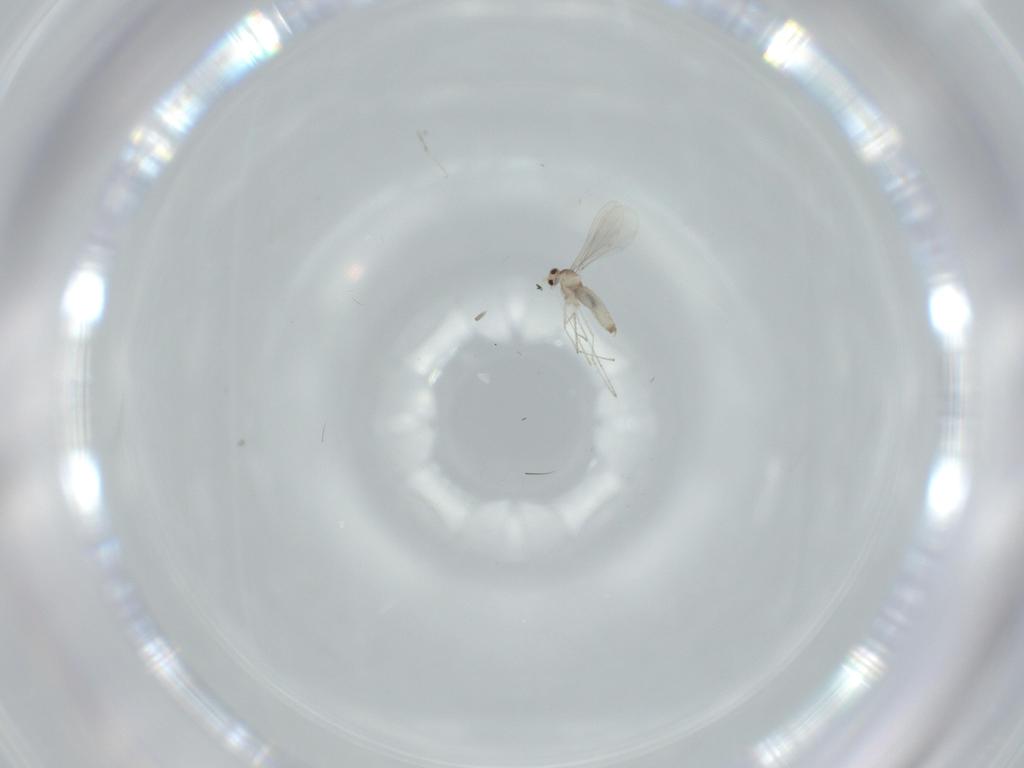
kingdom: Animalia
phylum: Arthropoda
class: Insecta
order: Diptera
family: Cecidomyiidae
